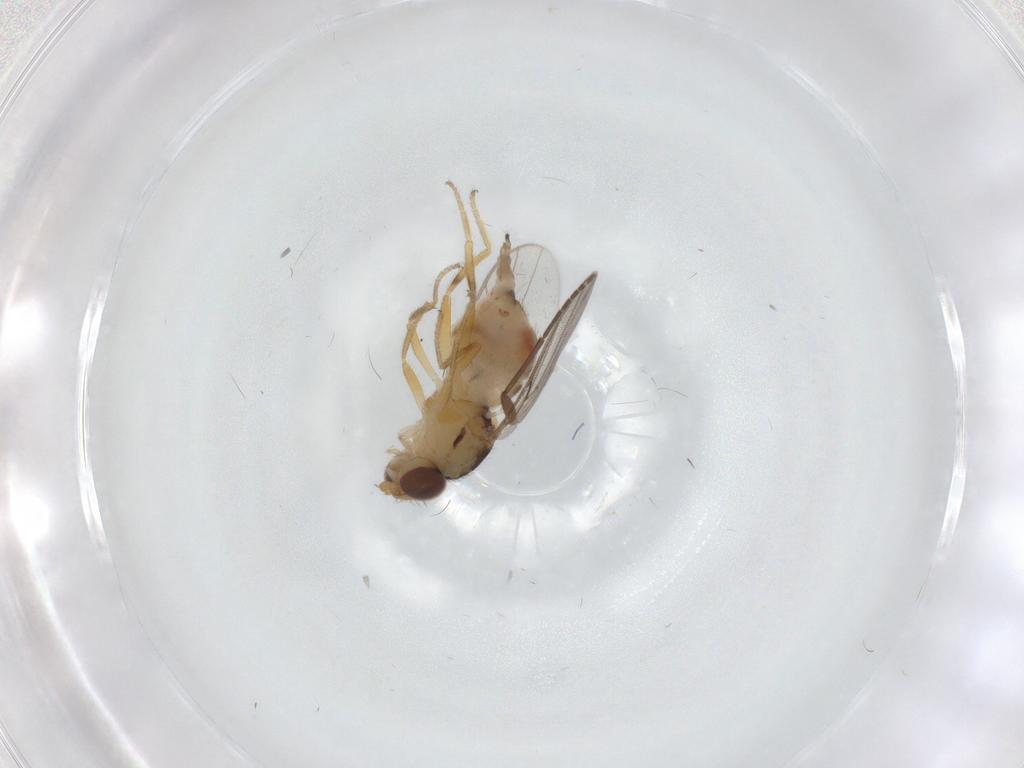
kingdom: Animalia
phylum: Arthropoda
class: Insecta
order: Diptera
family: Chloropidae
